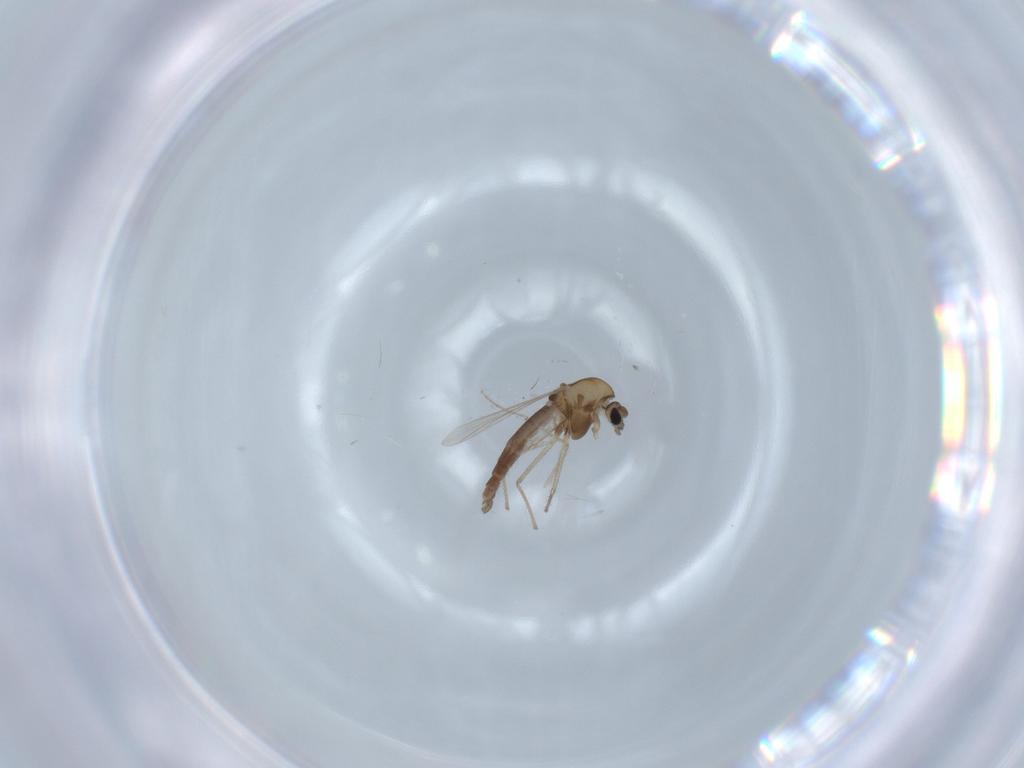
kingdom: Animalia
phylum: Arthropoda
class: Insecta
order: Diptera
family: Chironomidae
